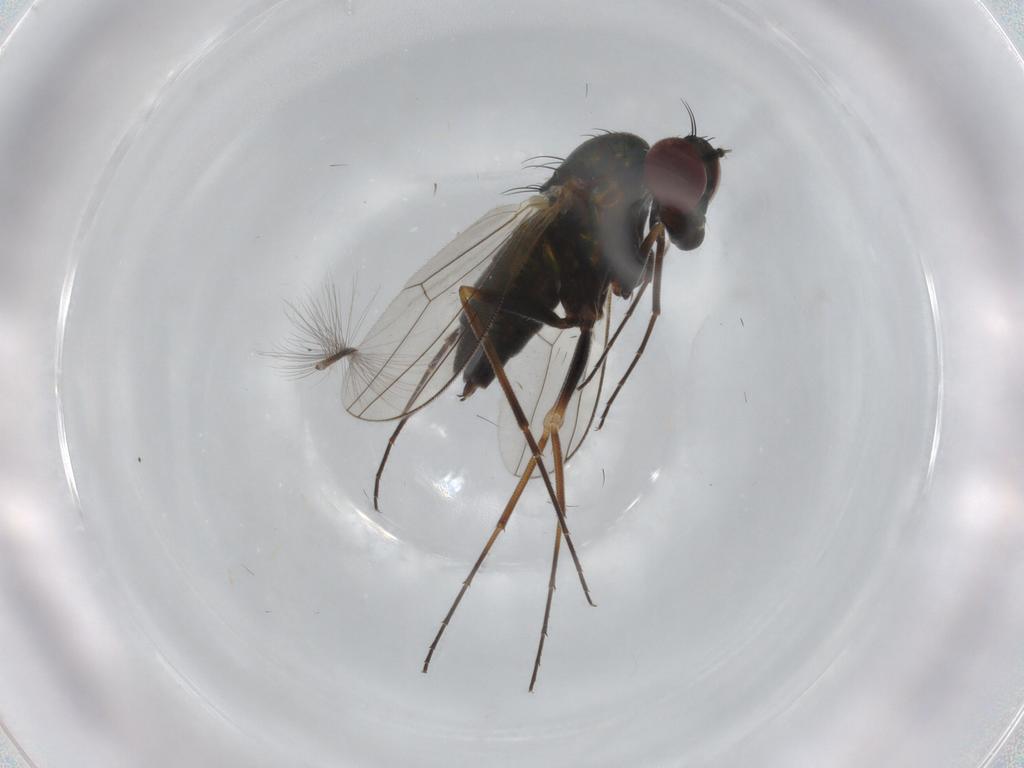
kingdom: Animalia
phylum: Arthropoda
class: Insecta
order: Diptera
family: Dolichopodidae
